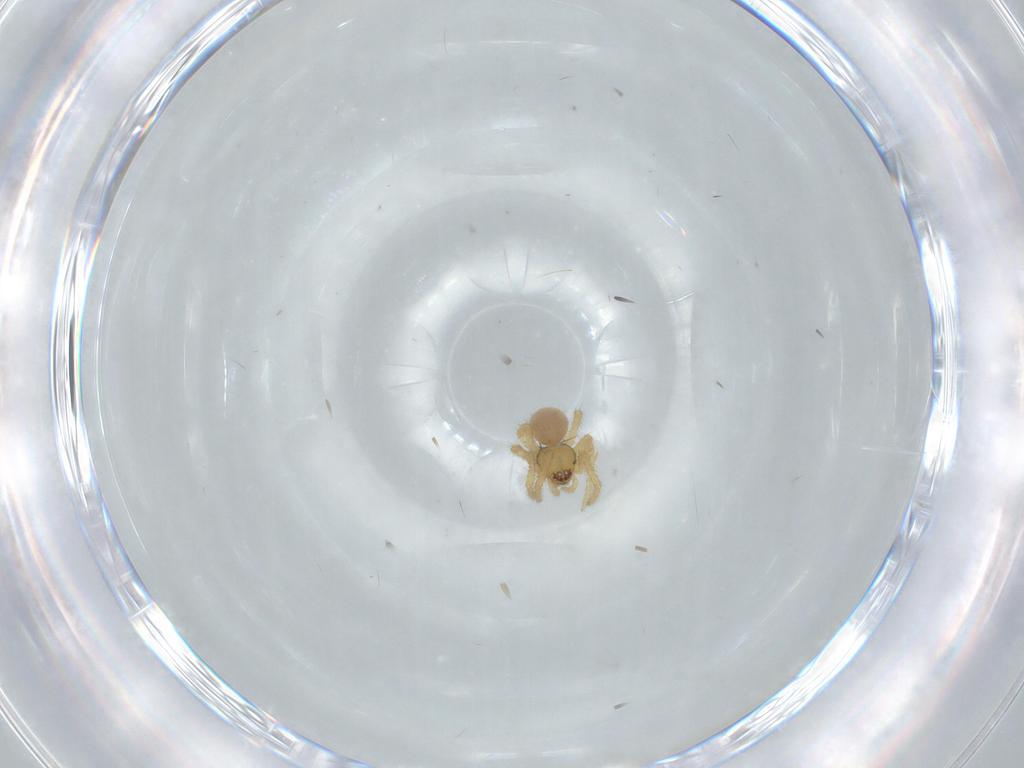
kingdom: Animalia
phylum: Arthropoda
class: Arachnida
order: Araneae
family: Theridiidae
